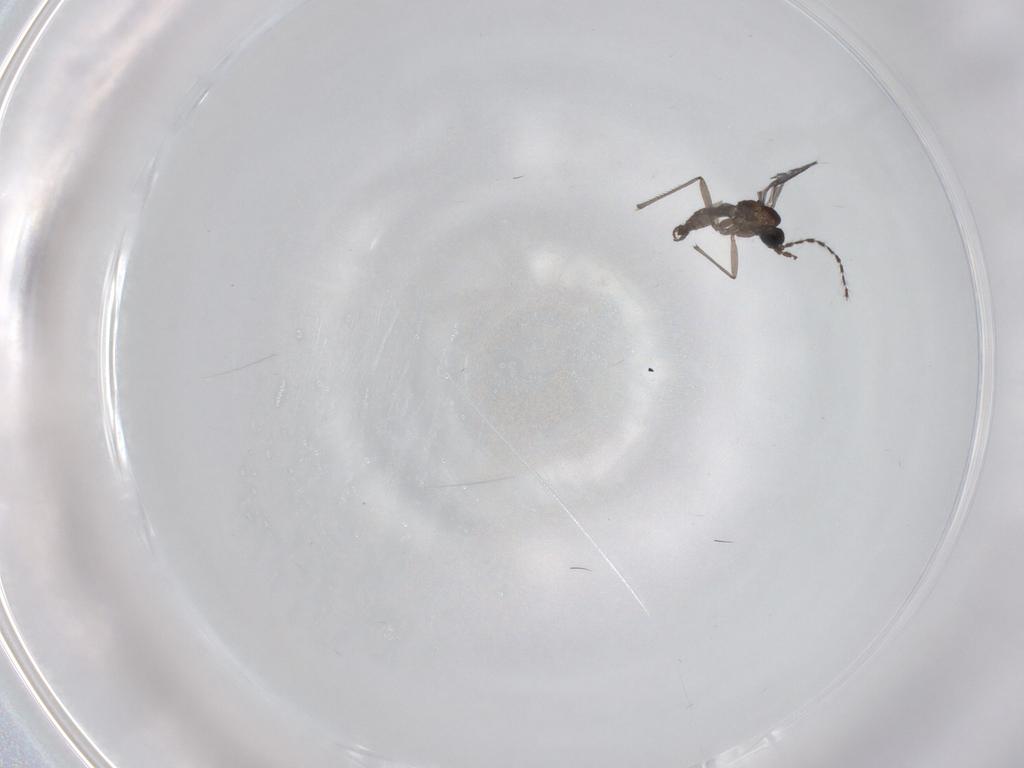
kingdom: Animalia
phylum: Arthropoda
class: Insecta
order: Diptera
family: Sciaridae
